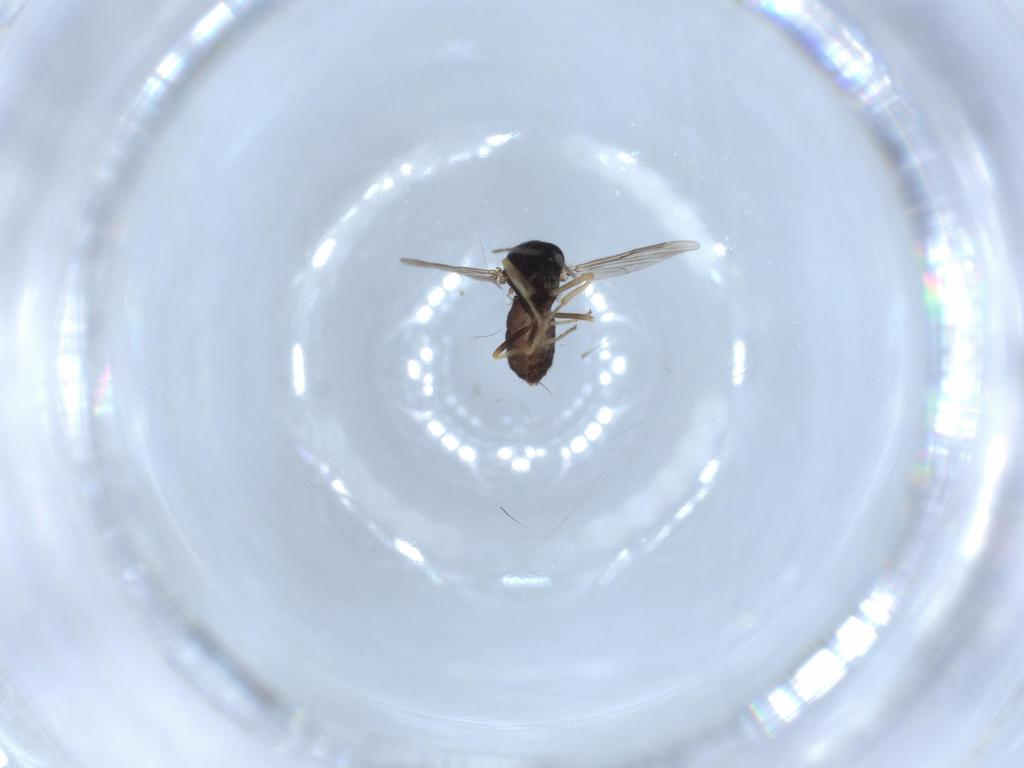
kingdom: Animalia
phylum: Arthropoda
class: Insecta
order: Diptera
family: Ceratopogonidae
